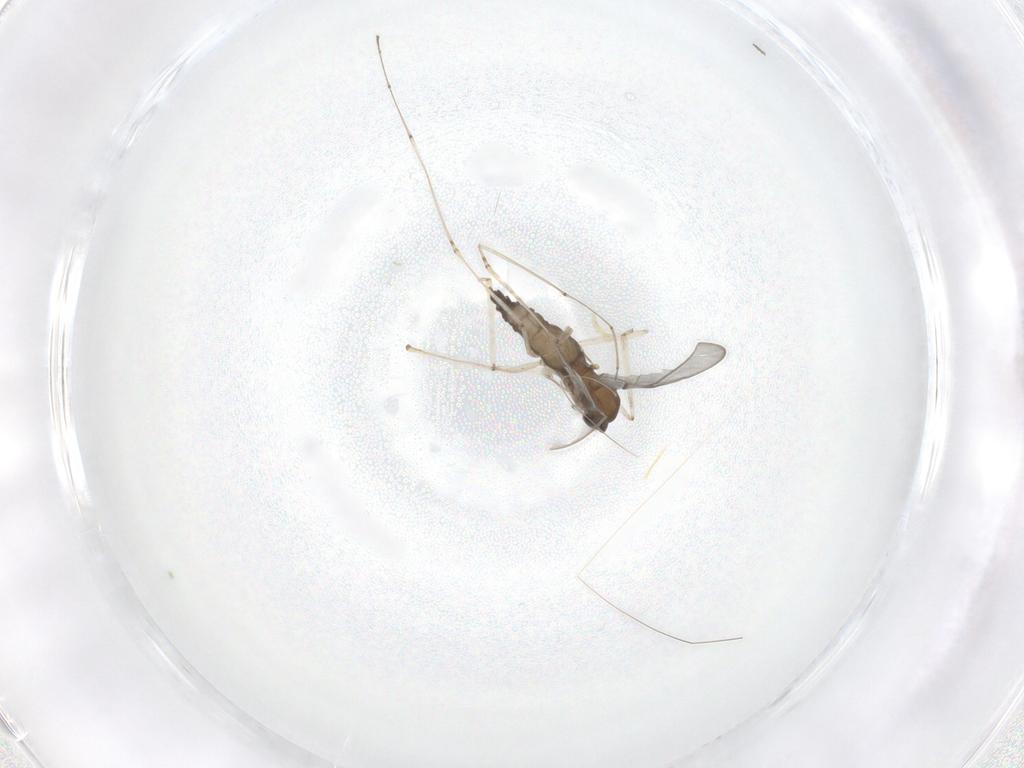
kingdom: Animalia
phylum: Arthropoda
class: Insecta
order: Diptera
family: Cecidomyiidae
